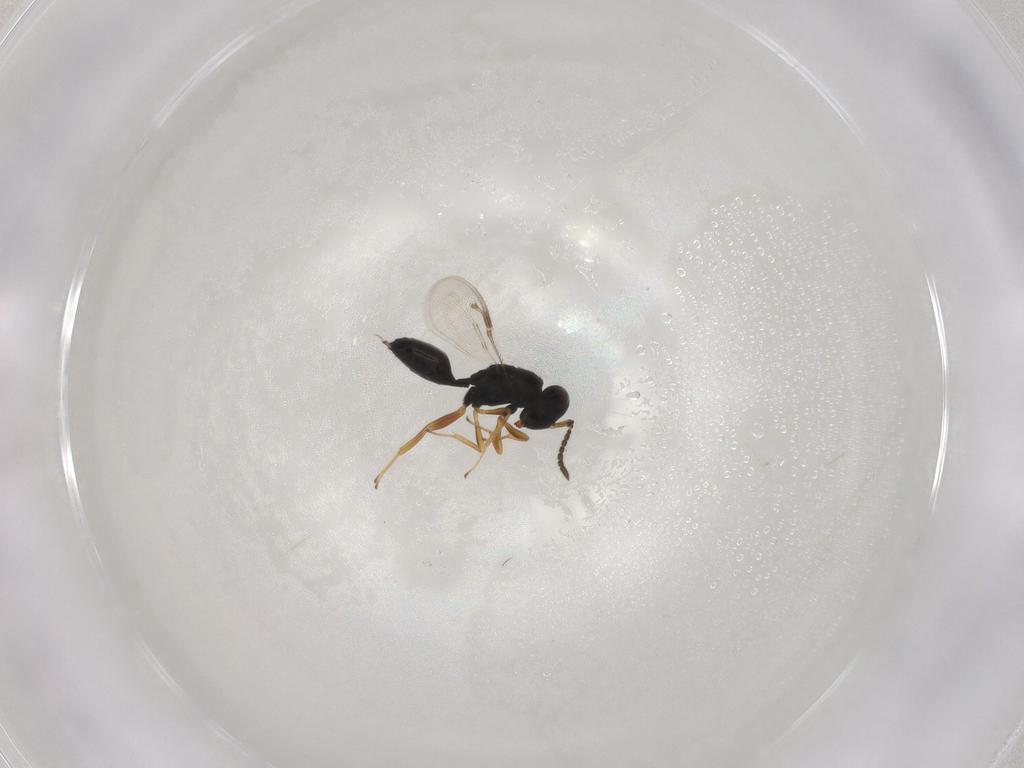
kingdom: Animalia
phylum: Arthropoda
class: Insecta
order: Hymenoptera
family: Pteromalidae
